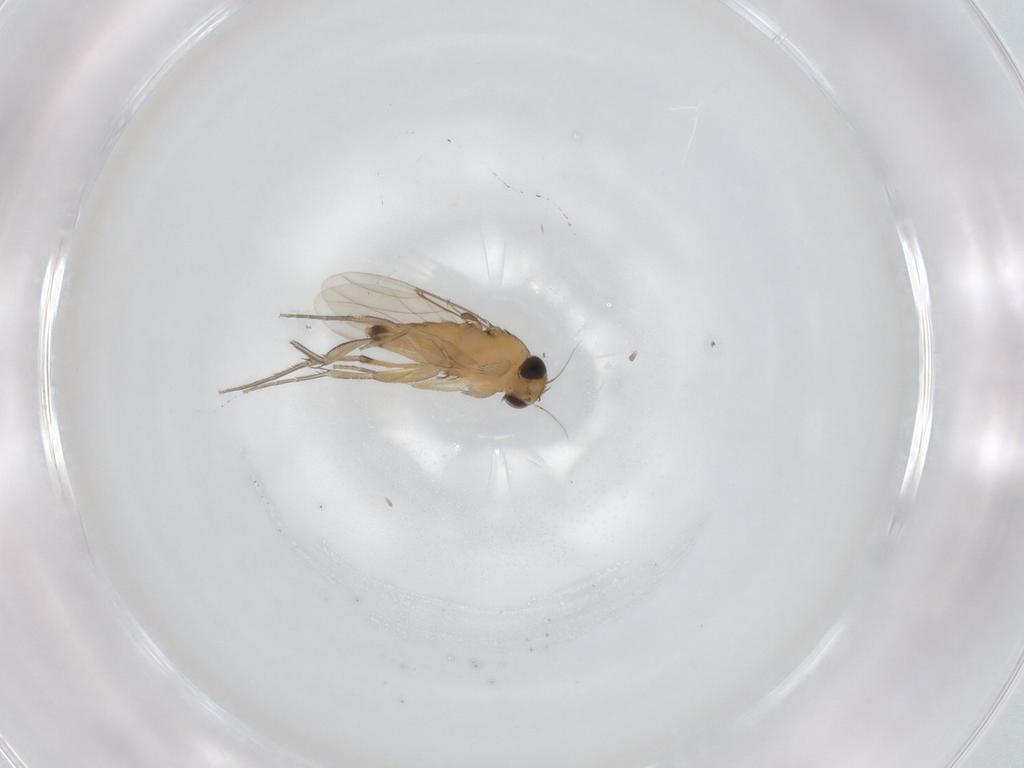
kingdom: Animalia
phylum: Arthropoda
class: Insecta
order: Diptera
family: Phoridae
